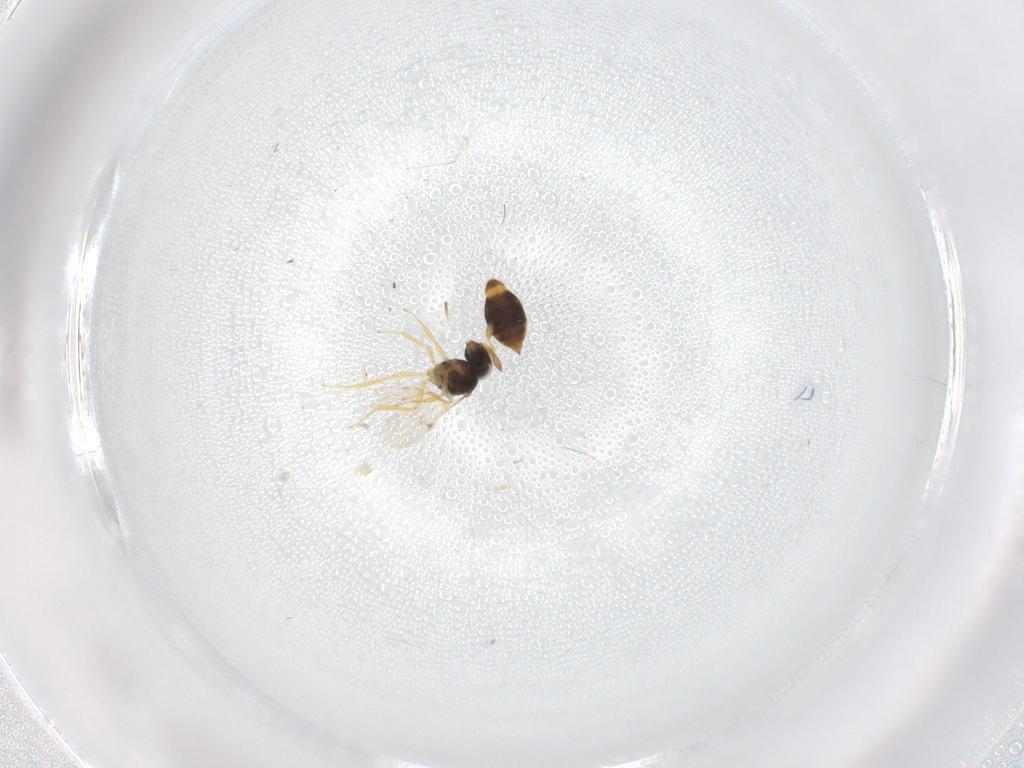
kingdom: Animalia
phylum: Arthropoda
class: Insecta
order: Hymenoptera
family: Scelionidae
